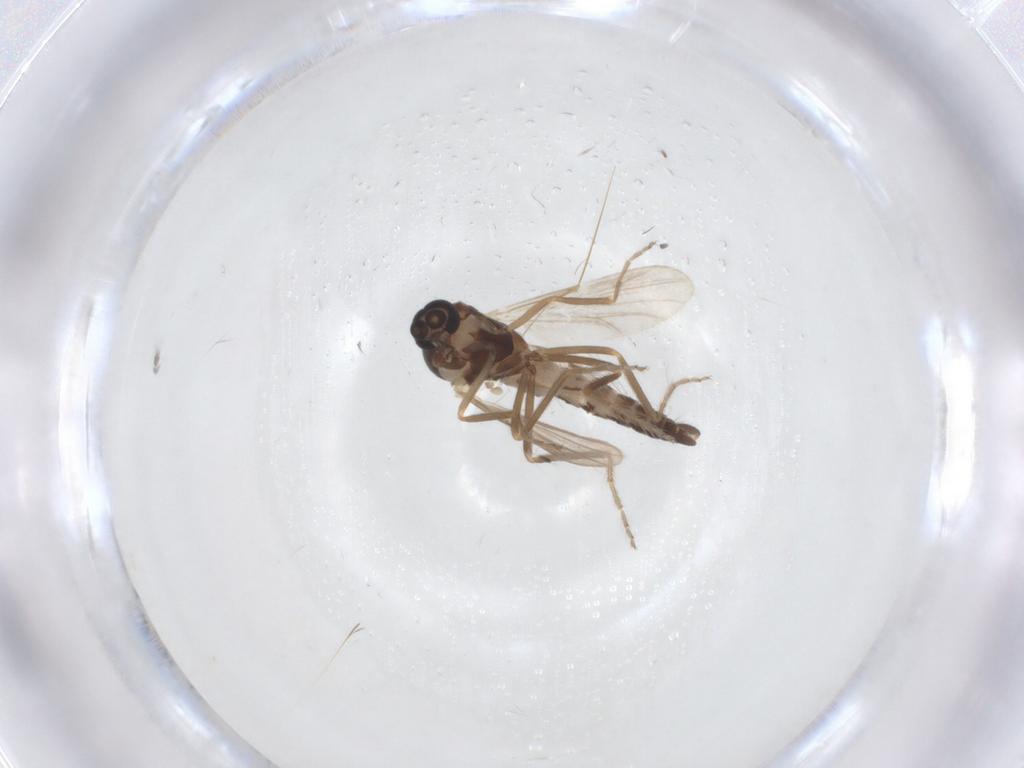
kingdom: Animalia
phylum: Arthropoda
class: Insecta
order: Diptera
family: Ceratopogonidae
